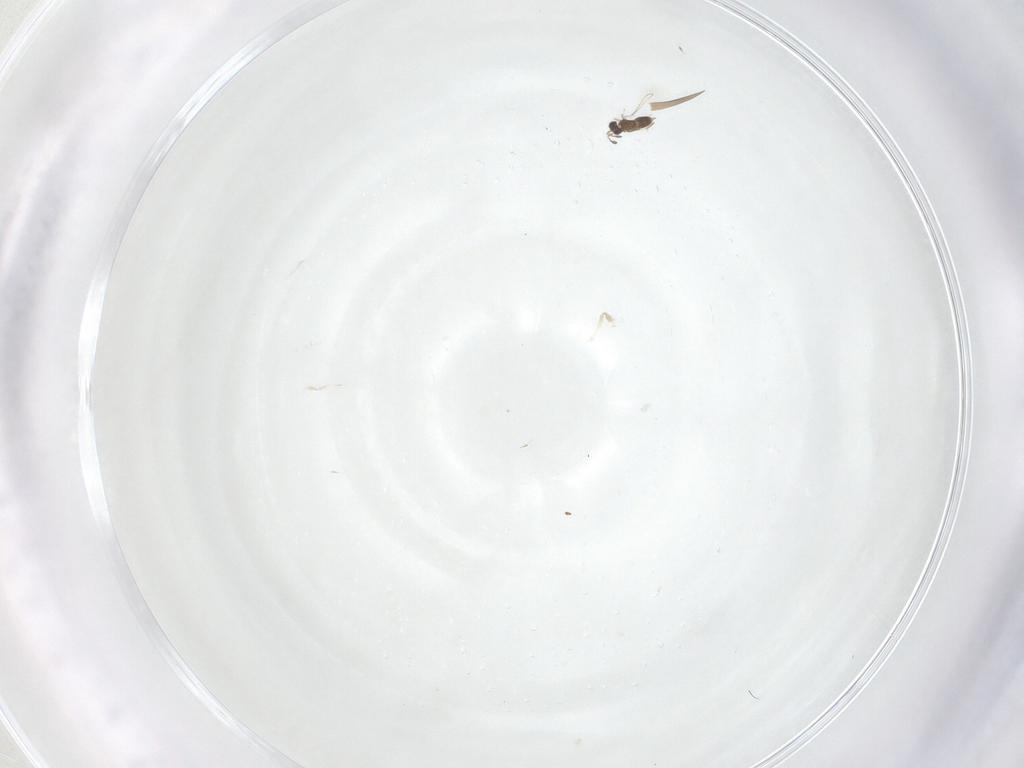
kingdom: Animalia
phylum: Arthropoda
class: Insecta
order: Hymenoptera
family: Mymaridae
